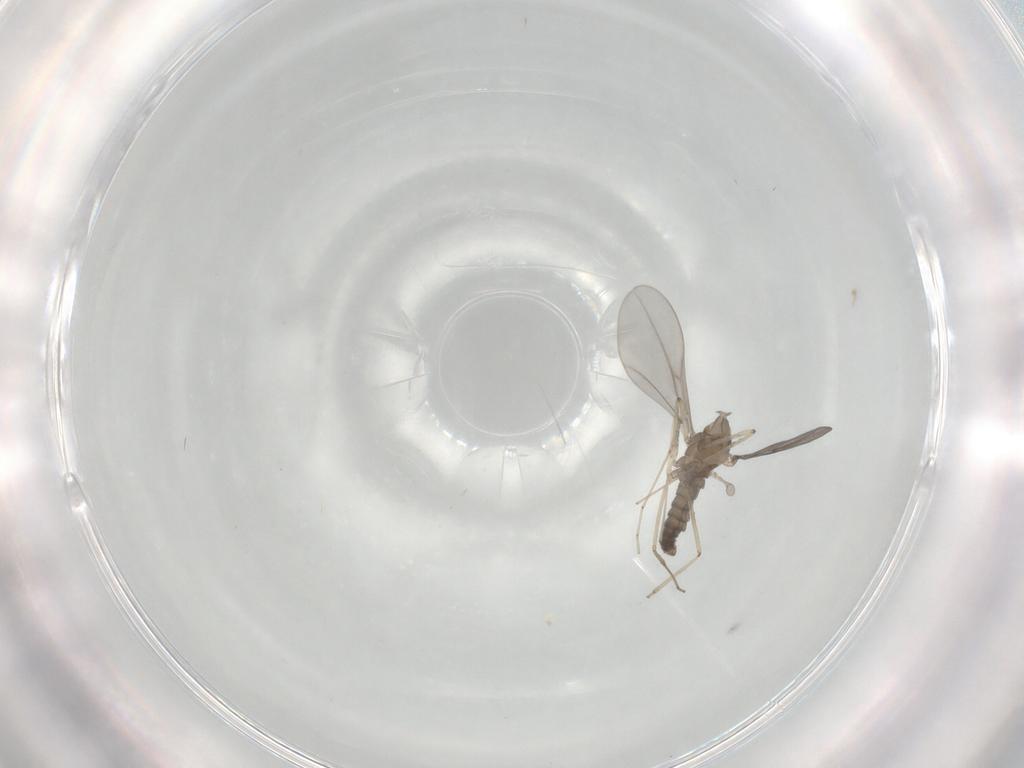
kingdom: Animalia
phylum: Arthropoda
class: Insecta
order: Diptera
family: Cecidomyiidae
